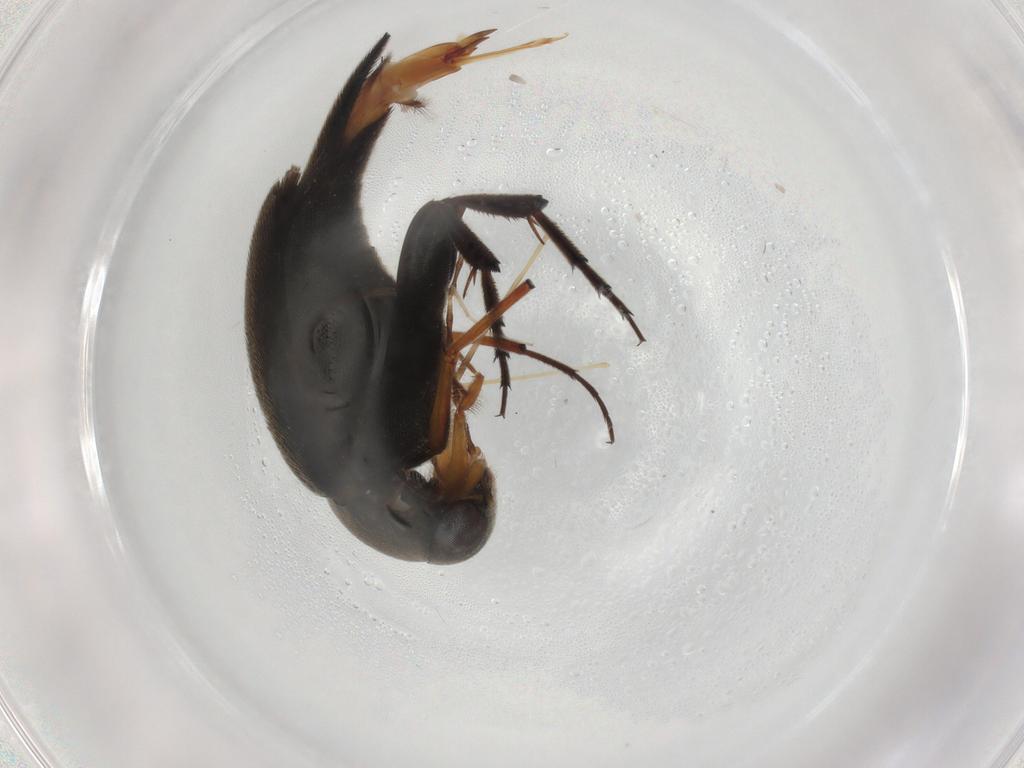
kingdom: Animalia
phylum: Arthropoda
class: Insecta
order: Coleoptera
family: Mordellidae
